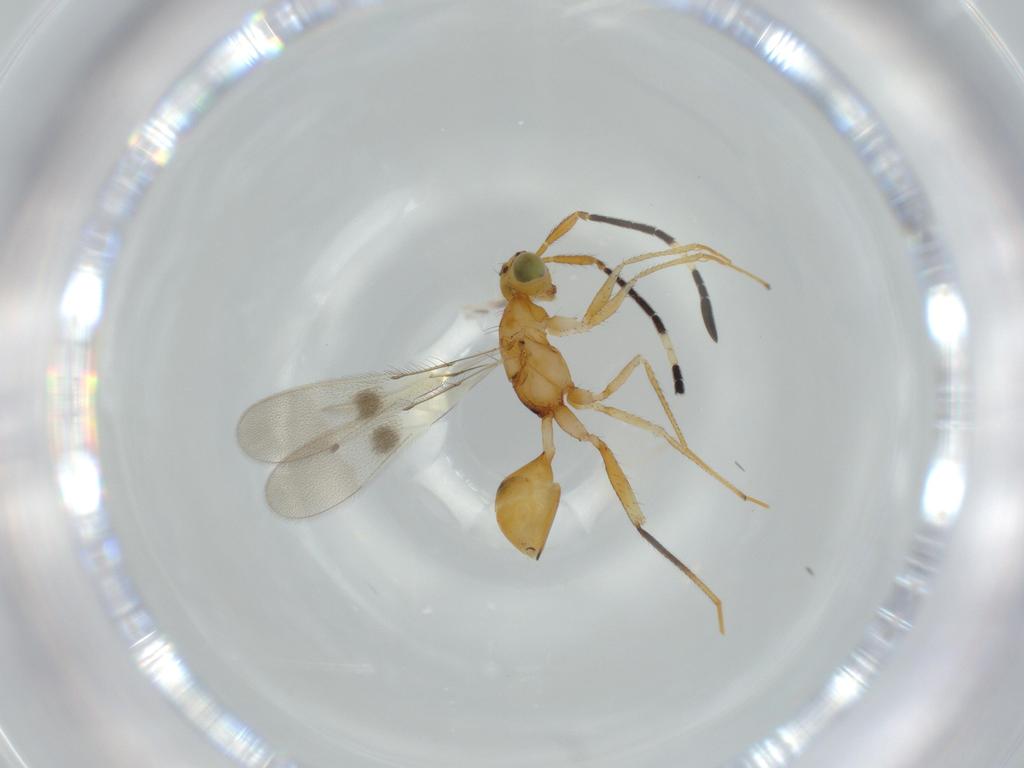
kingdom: Animalia
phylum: Arthropoda
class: Insecta
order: Hymenoptera
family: Mymaridae
